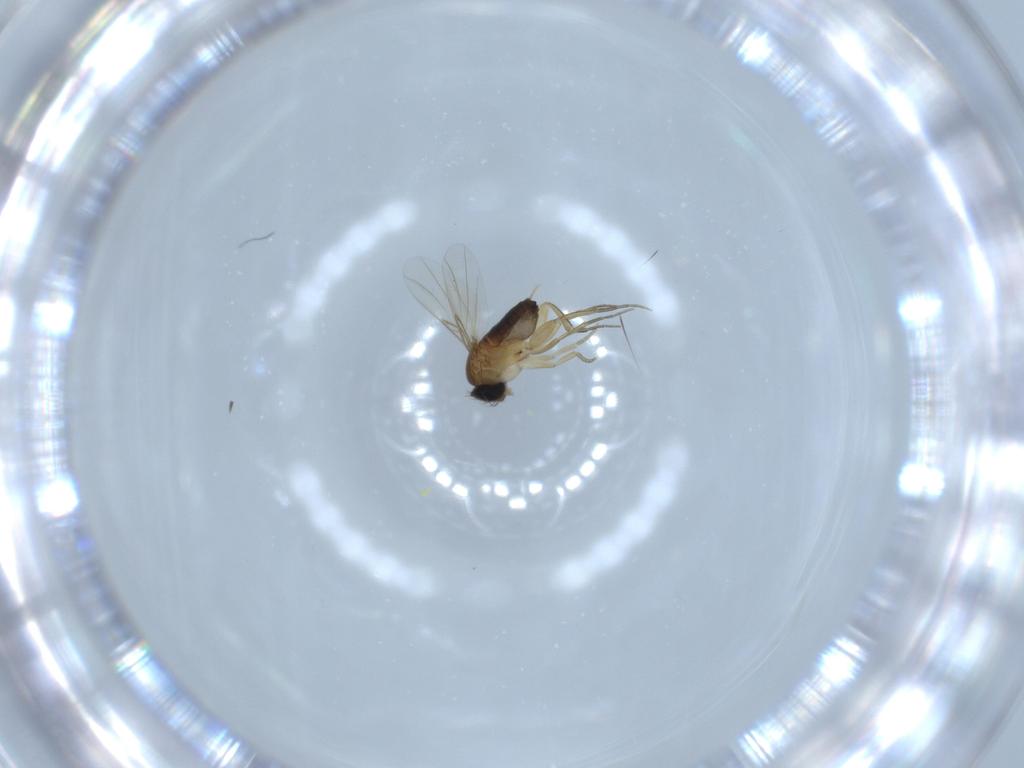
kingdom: Animalia
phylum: Arthropoda
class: Insecta
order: Diptera
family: Phoridae
